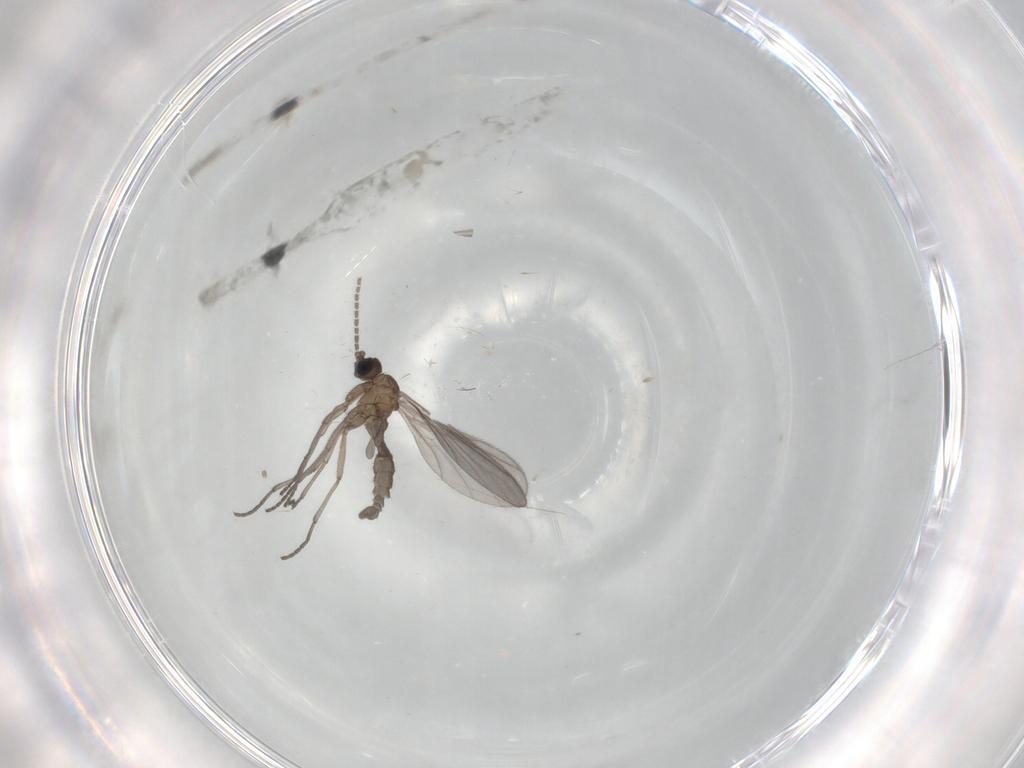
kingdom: Animalia
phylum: Arthropoda
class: Insecta
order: Diptera
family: Sciaridae
